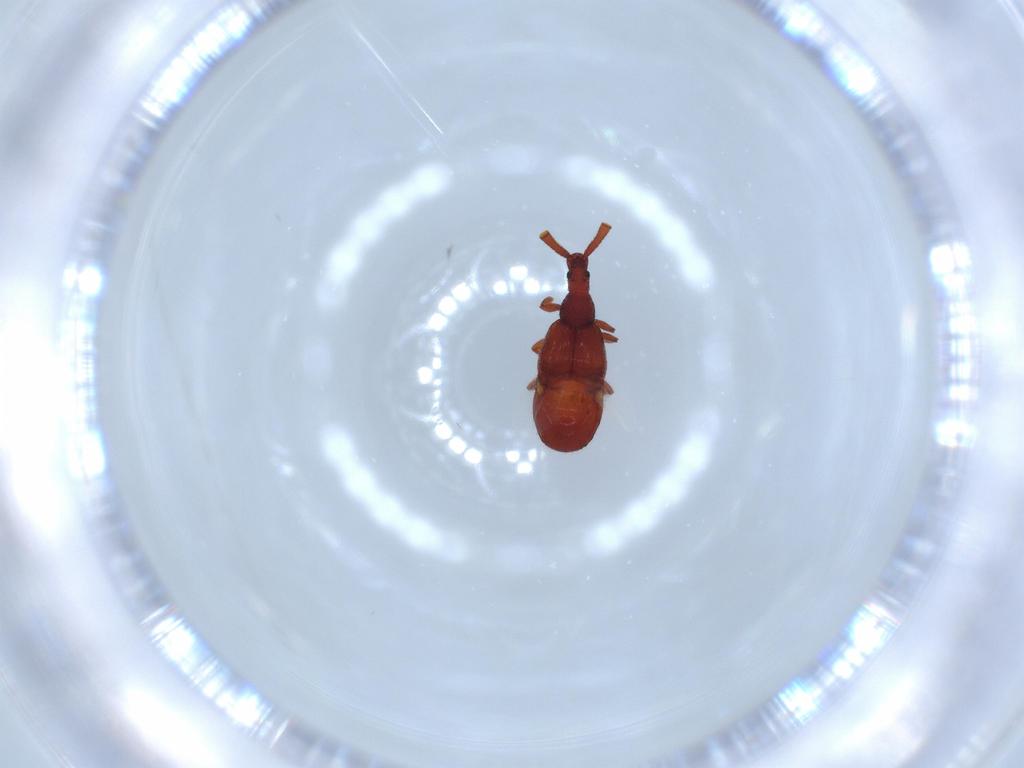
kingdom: Animalia
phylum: Arthropoda
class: Insecta
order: Coleoptera
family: Staphylinidae
